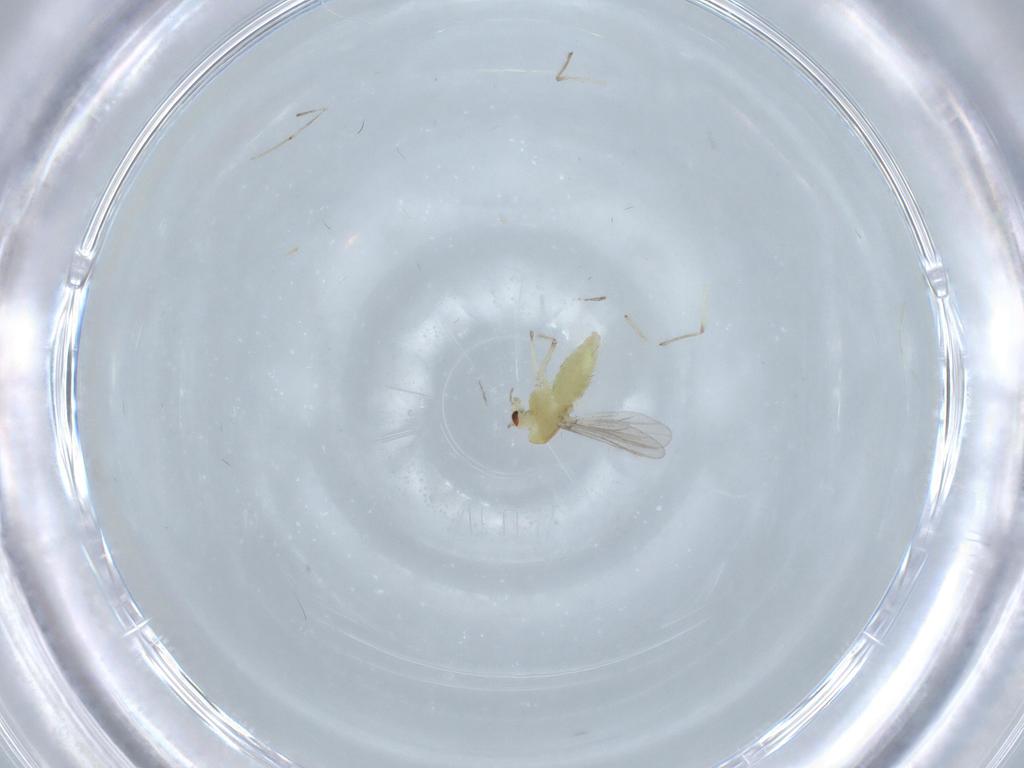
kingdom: Animalia
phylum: Arthropoda
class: Insecta
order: Diptera
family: Chironomidae
